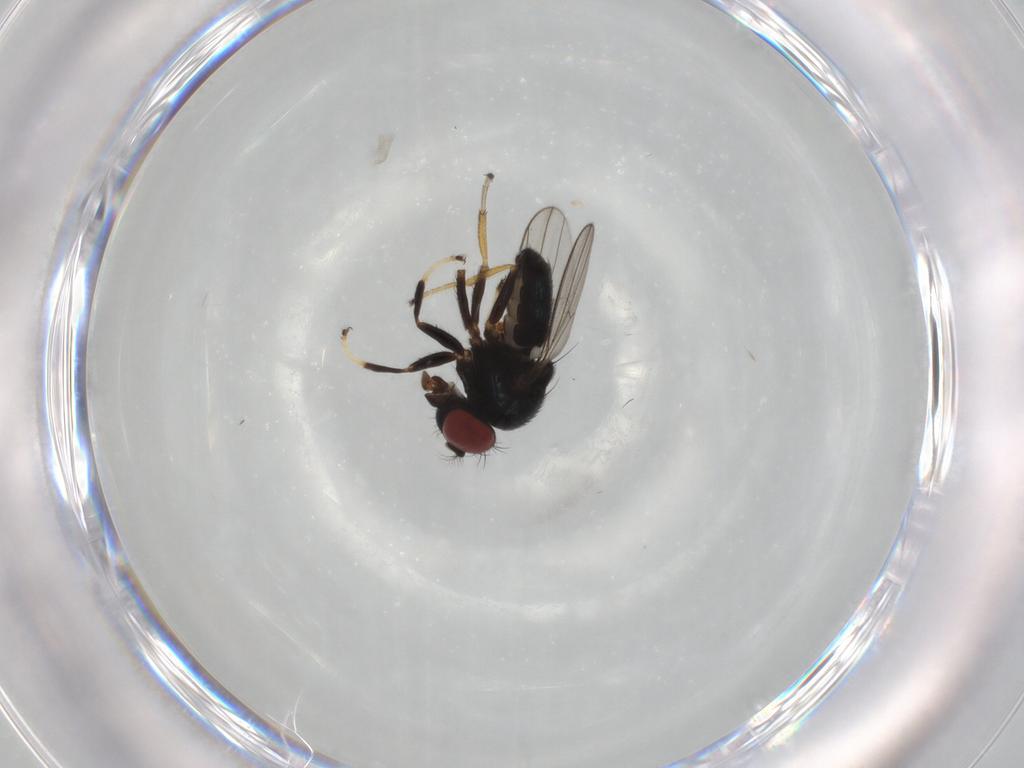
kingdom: Animalia
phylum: Arthropoda
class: Insecta
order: Diptera
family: Ephydridae
